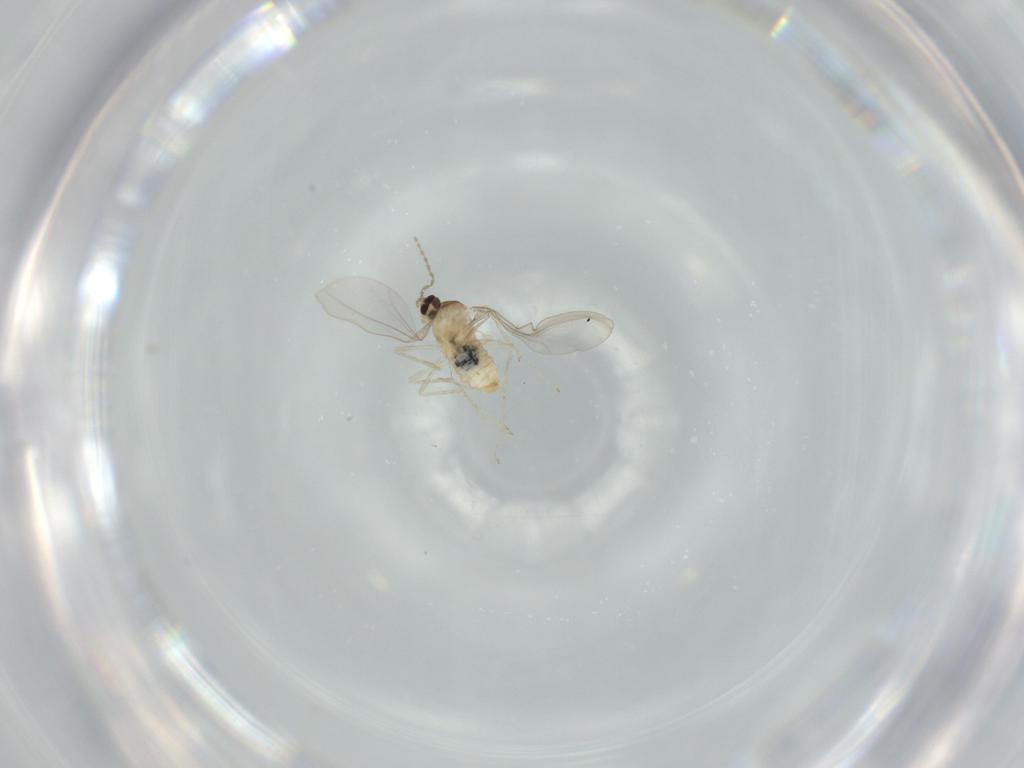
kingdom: Animalia
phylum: Arthropoda
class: Insecta
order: Diptera
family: Cecidomyiidae
